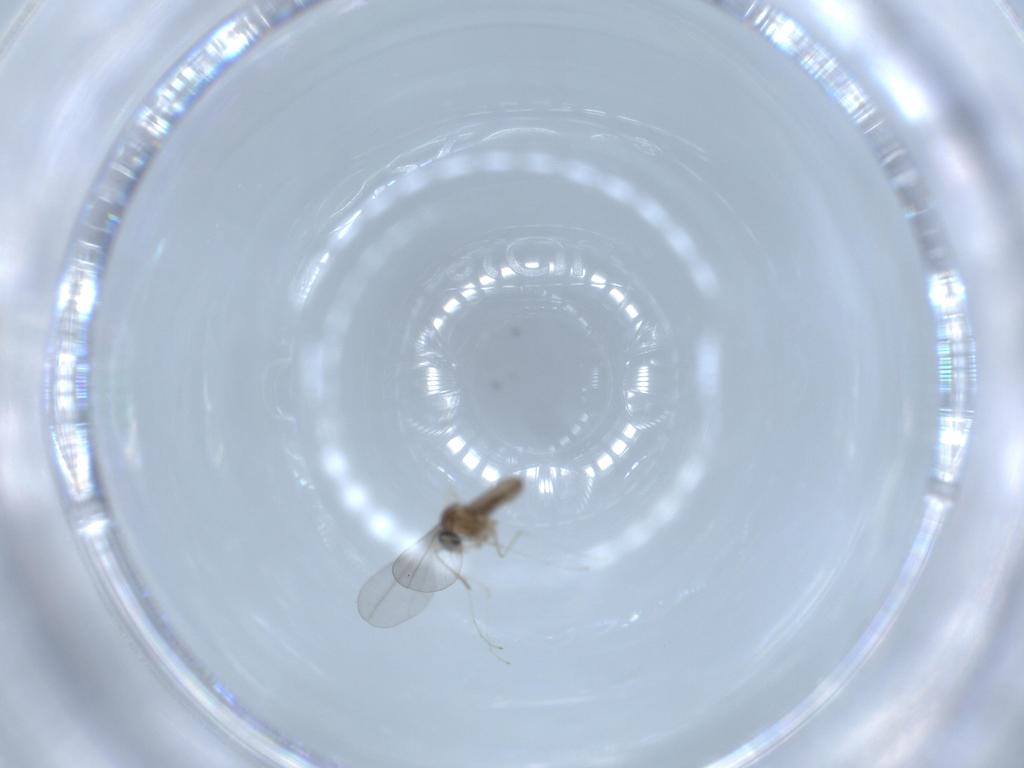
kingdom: Animalia
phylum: Arthropoda
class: Insecta
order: Diptera
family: Cecidomyiidae
